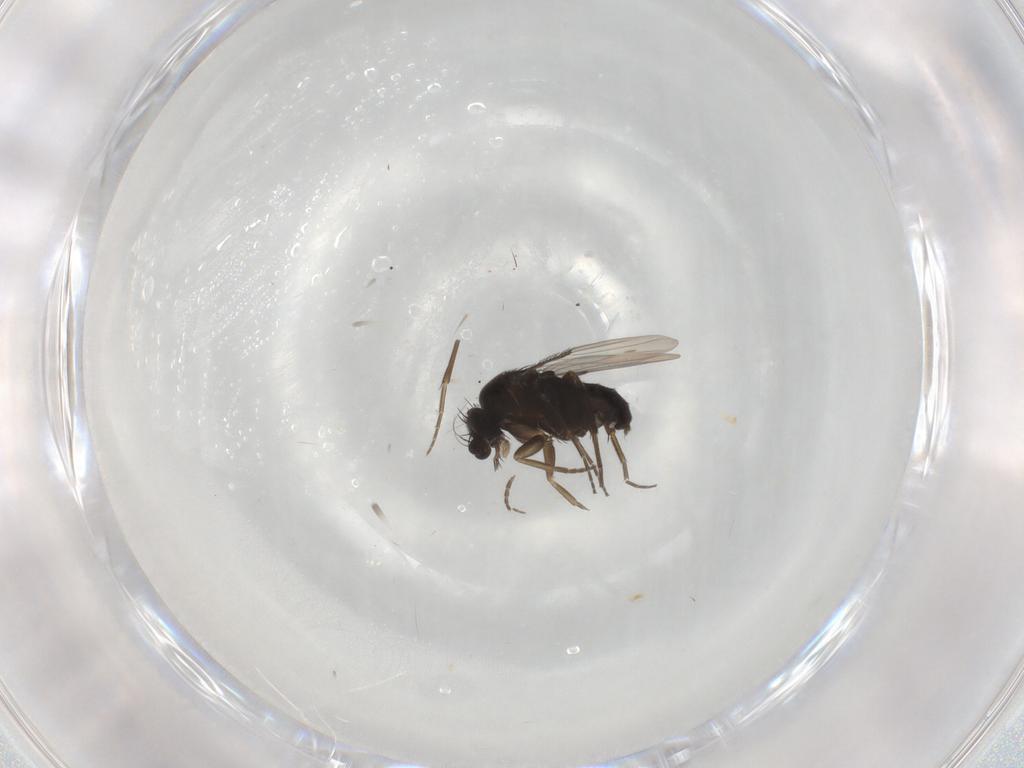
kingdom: Animalia
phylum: Arthropoda
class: Insecta
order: Diptera
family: Phoridae
